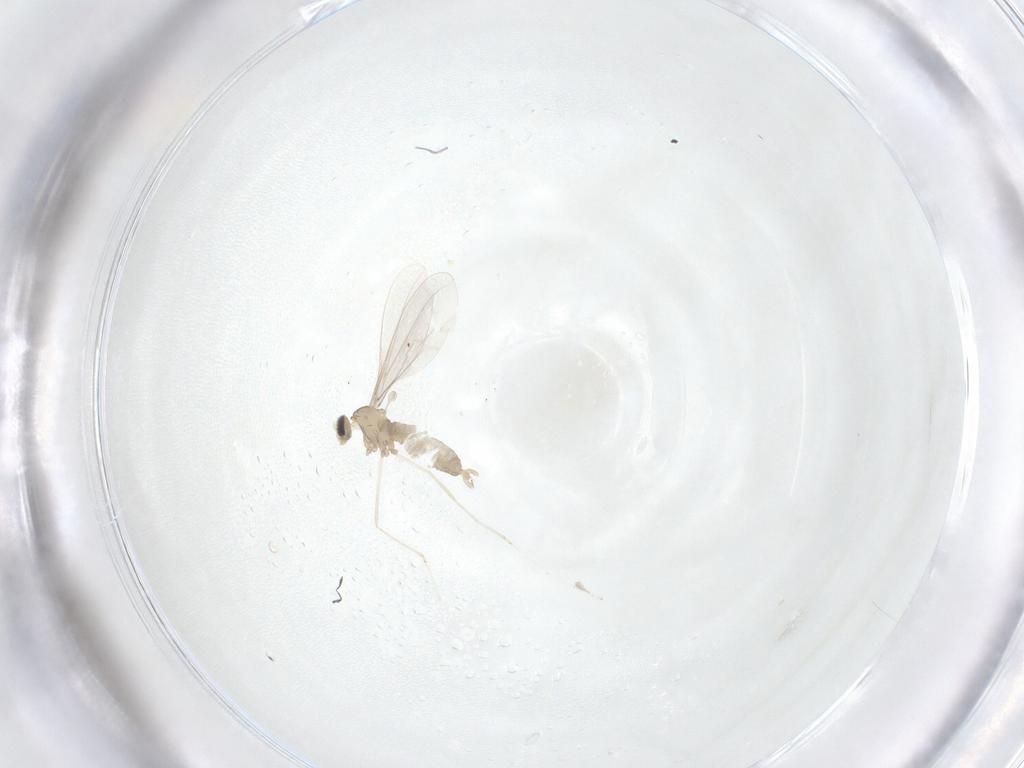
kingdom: Animalia
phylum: Arthropoda
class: Insecta
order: Diptera
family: Cecidomyiidae
